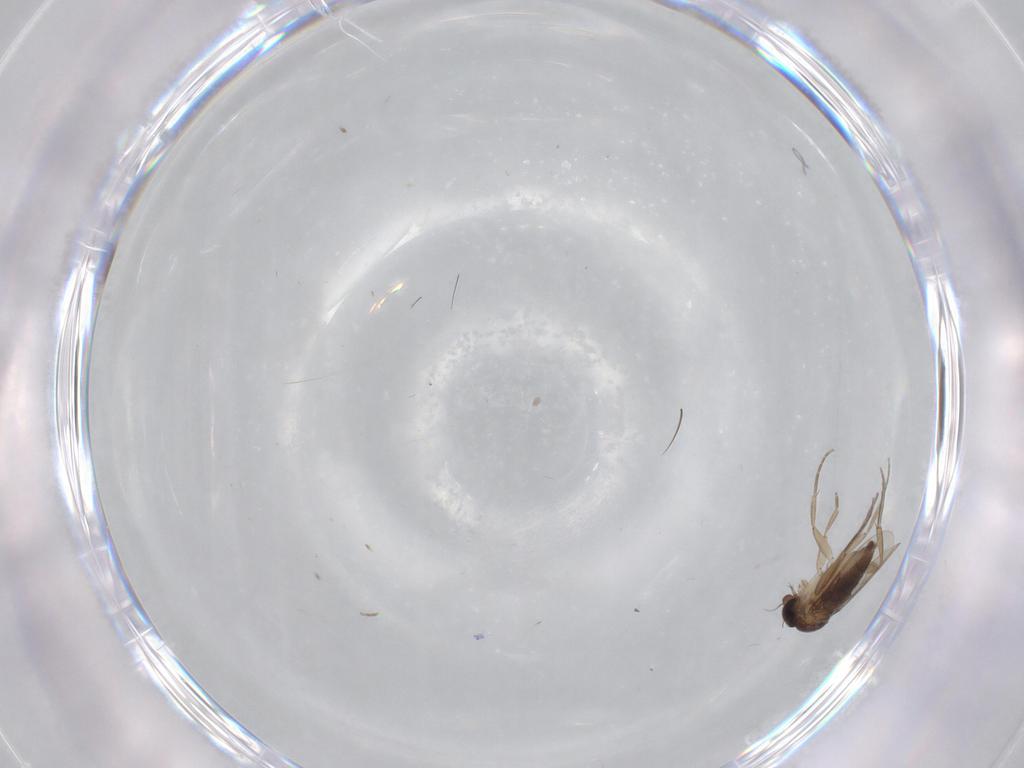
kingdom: Animalia
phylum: Arthropoda
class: Insecta
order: Diptera
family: Phoridae
